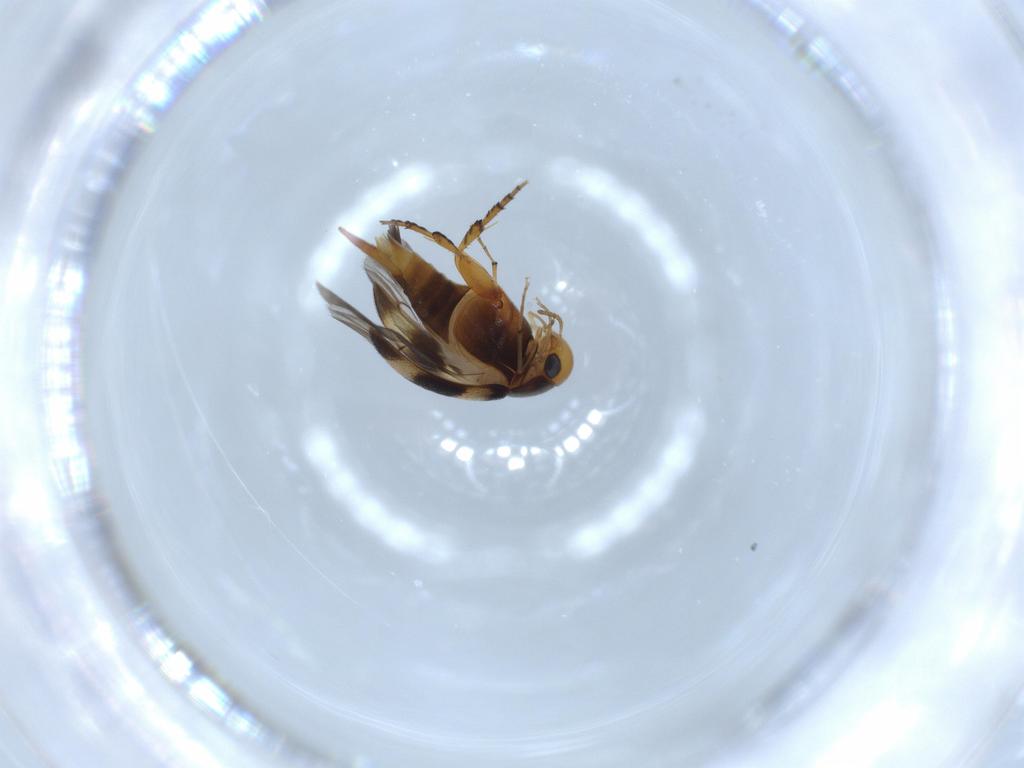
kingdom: Animalia
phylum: Arthropoda
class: Insecta
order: Coleoptera
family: Mordellidae
